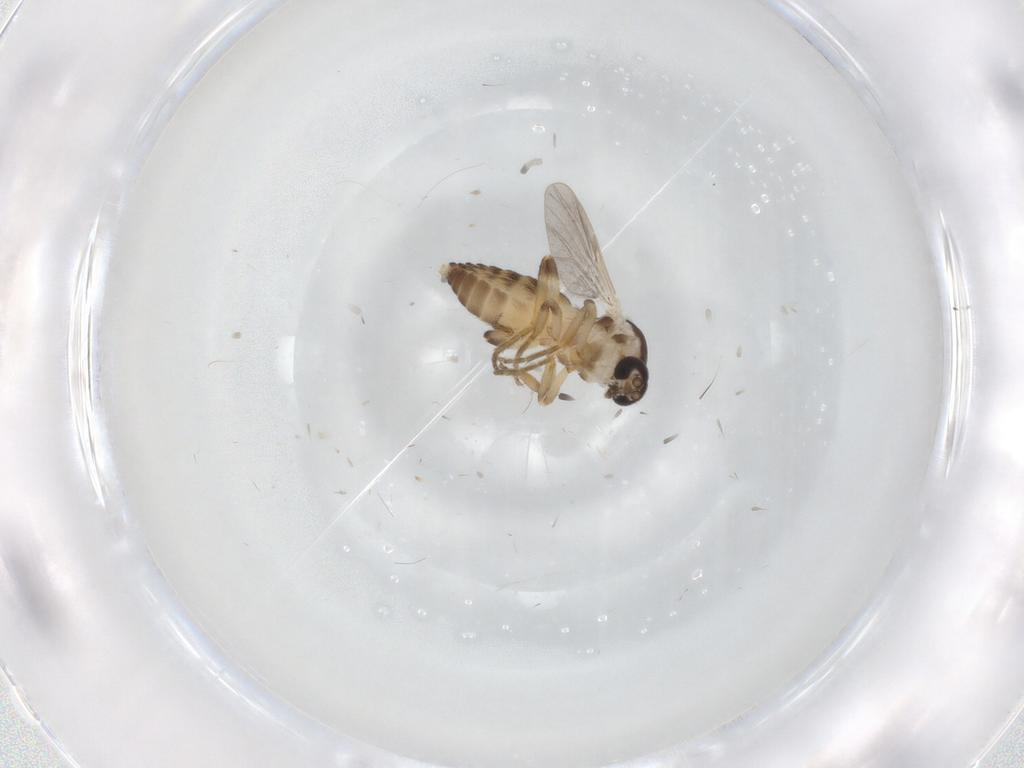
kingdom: Animalia
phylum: Arthropoda
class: Insecta
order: Diptera
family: Ceratopogonidae
